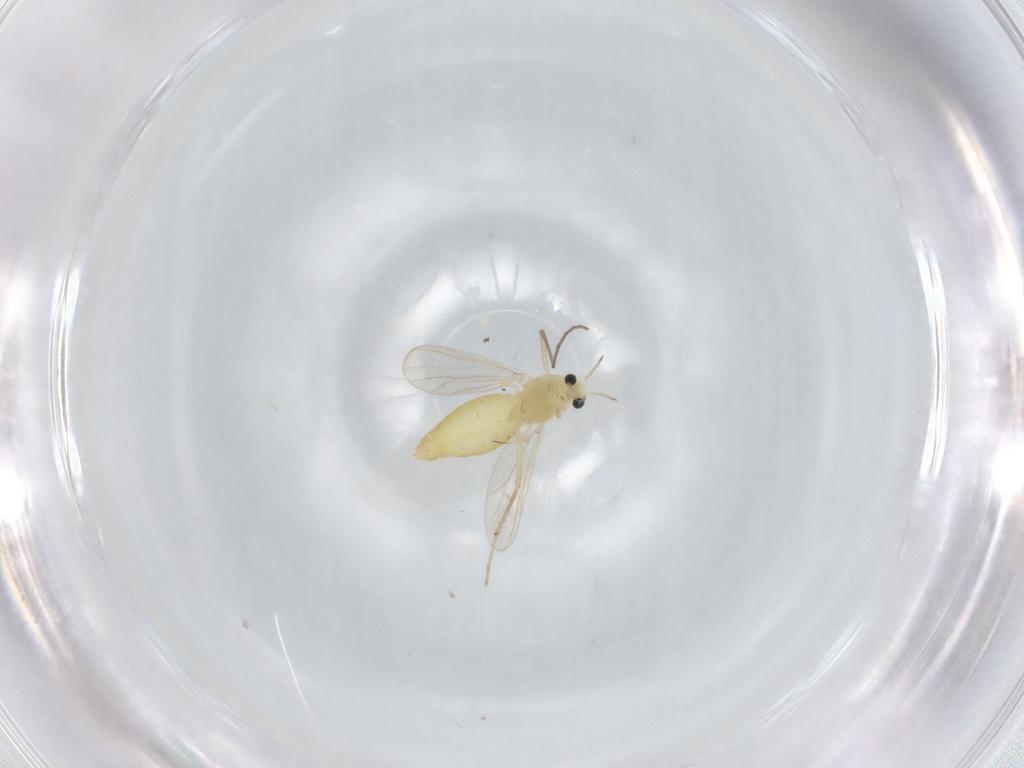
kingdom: Animalia
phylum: Arthropoda
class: Insecta
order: Diptera
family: Chironomidae
